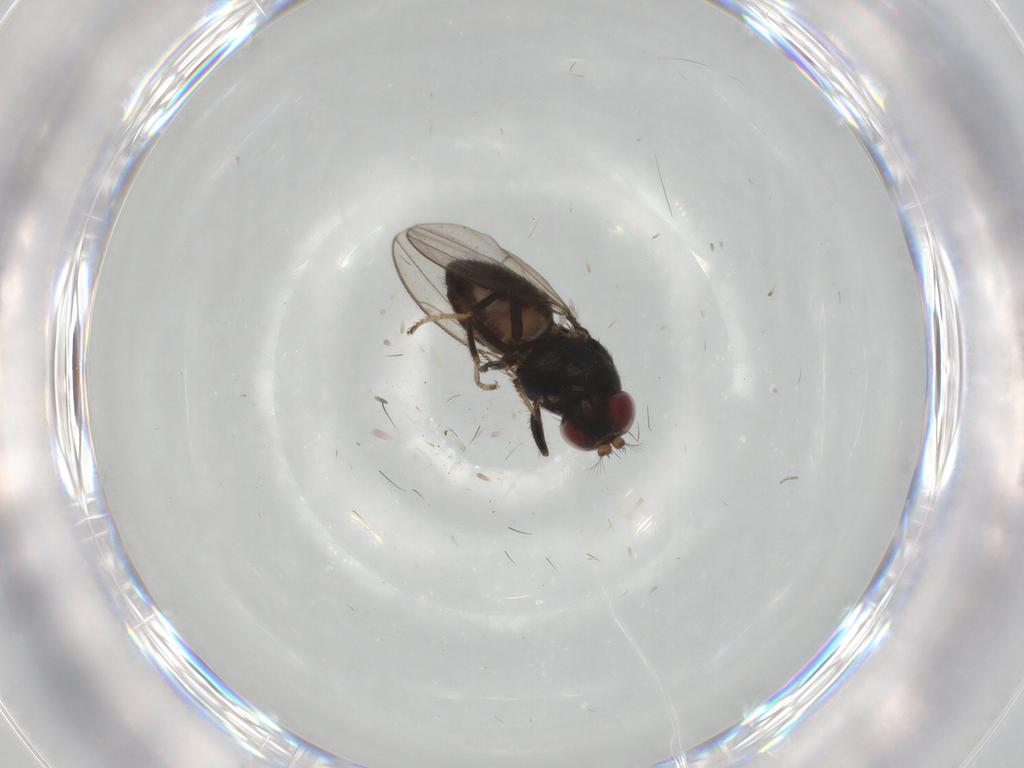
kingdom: Animalia
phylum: Arthropoda
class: Insecta
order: Diptera
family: Ephydridae
